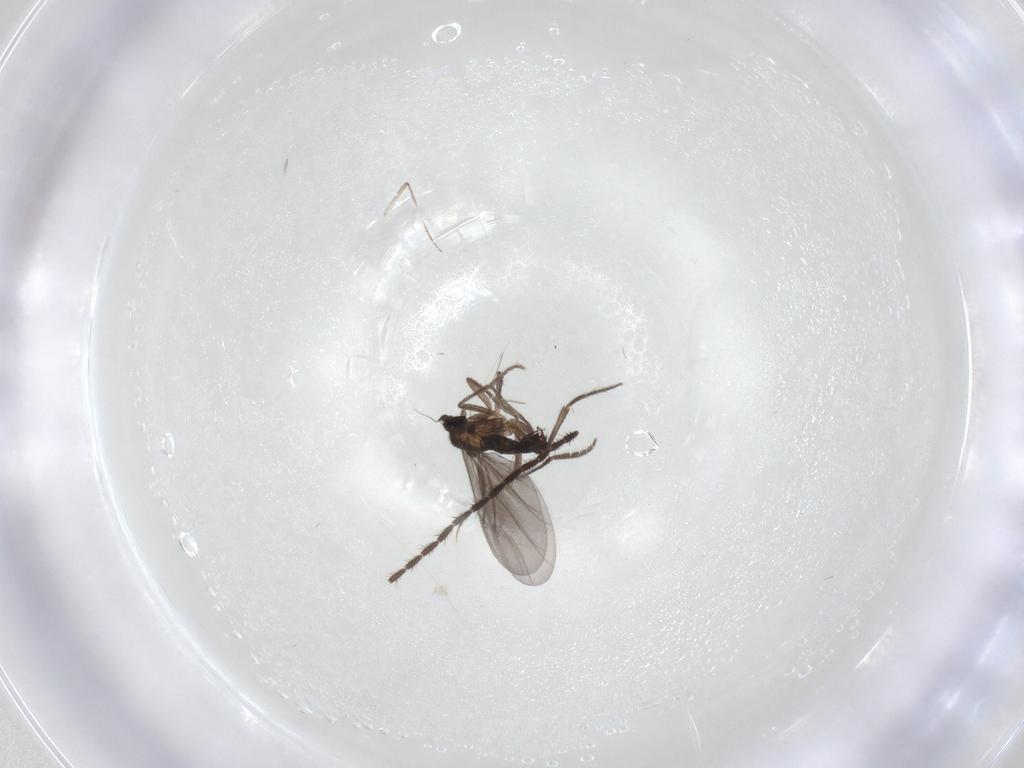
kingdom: Animalia
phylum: Arthropoda
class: Insecta
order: Diptera
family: Phoridae
